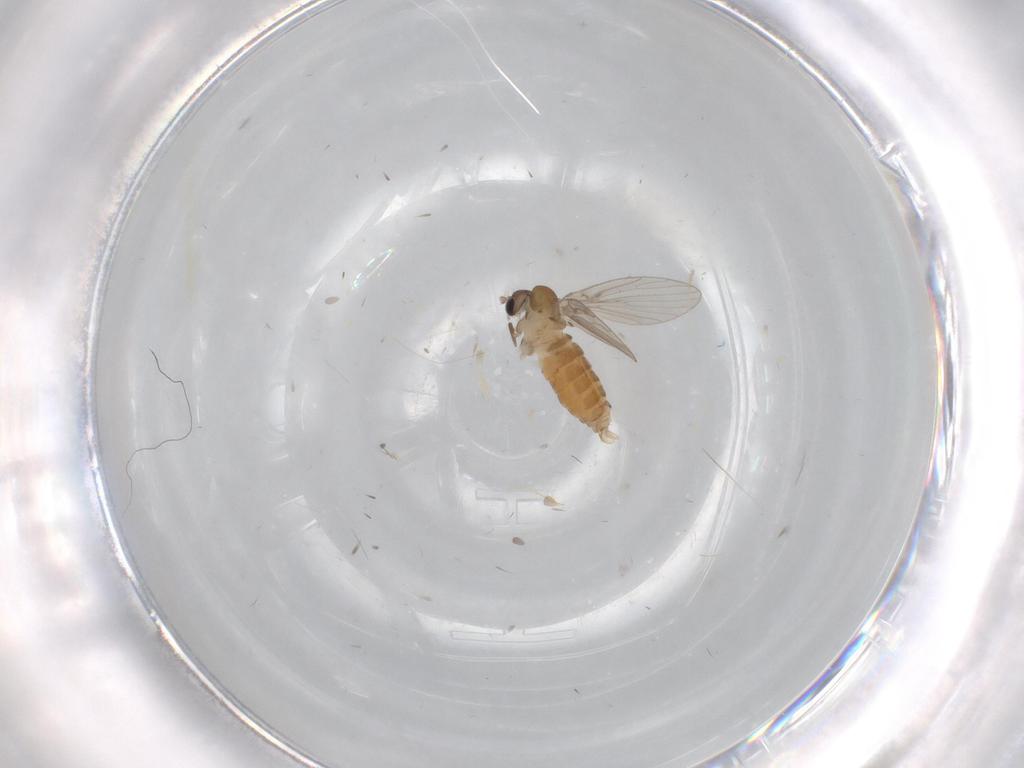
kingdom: Animalia
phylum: Arthropoda
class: Insecta
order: Diptera
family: Psychodidae
